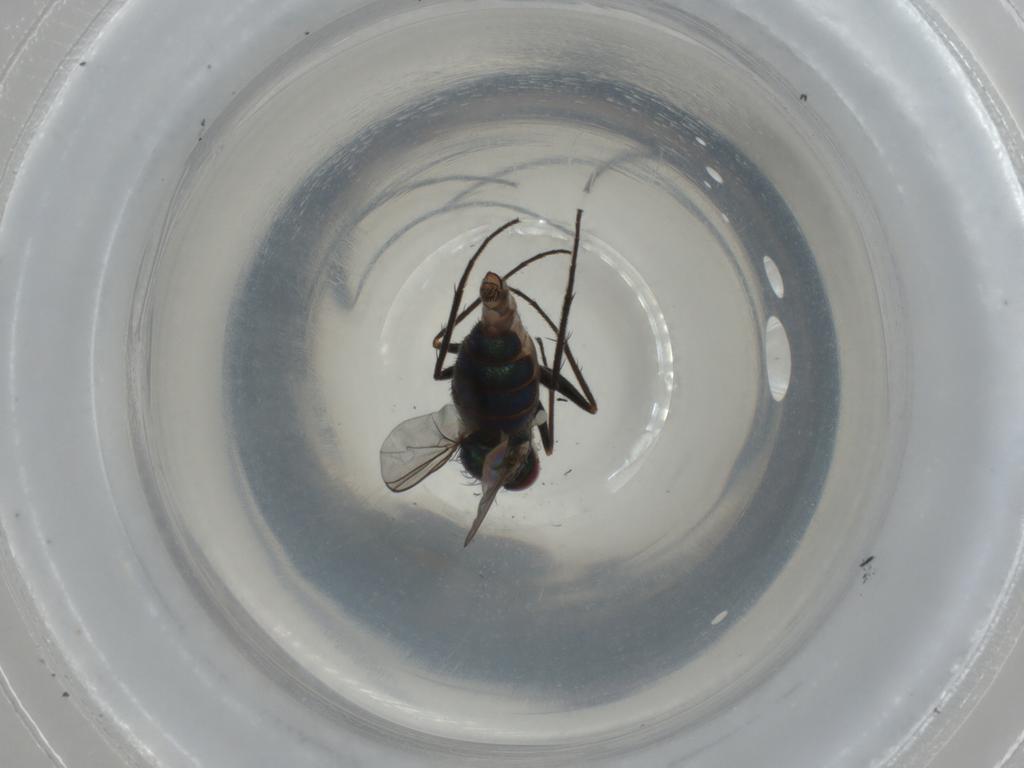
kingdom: Animalia
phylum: Arthropoda
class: Insecta
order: Diptera
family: Dolichopodidae
